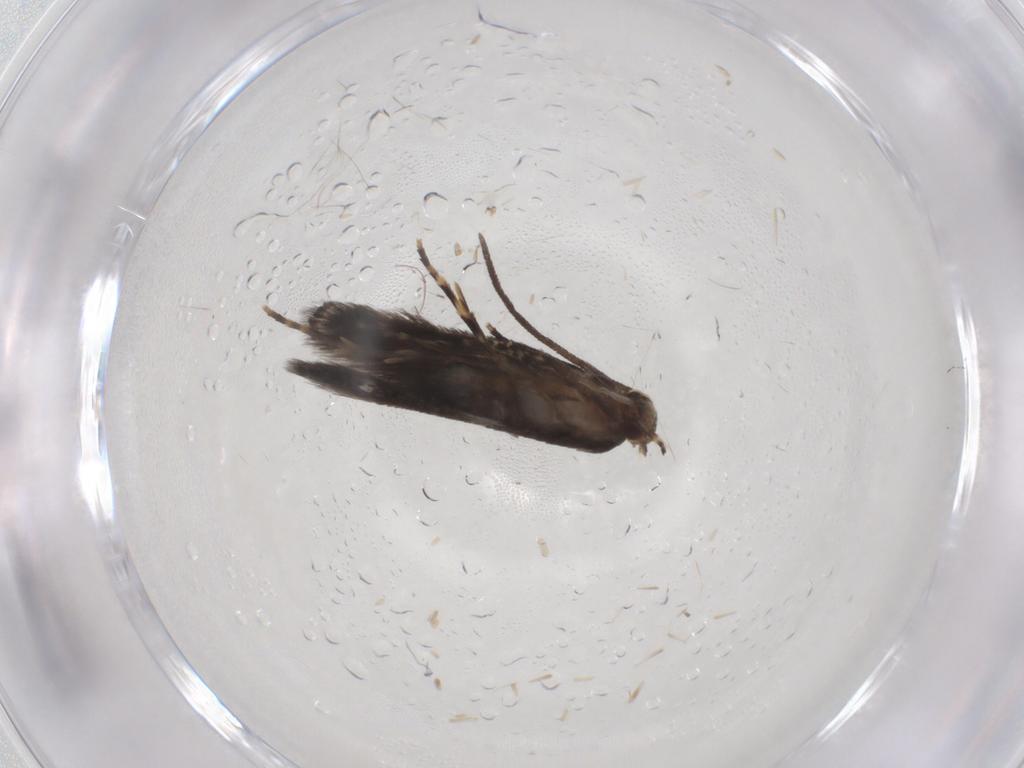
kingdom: Animalia
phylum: Arthropoda
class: Insecta
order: Lepidoptera
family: Elachistidae
